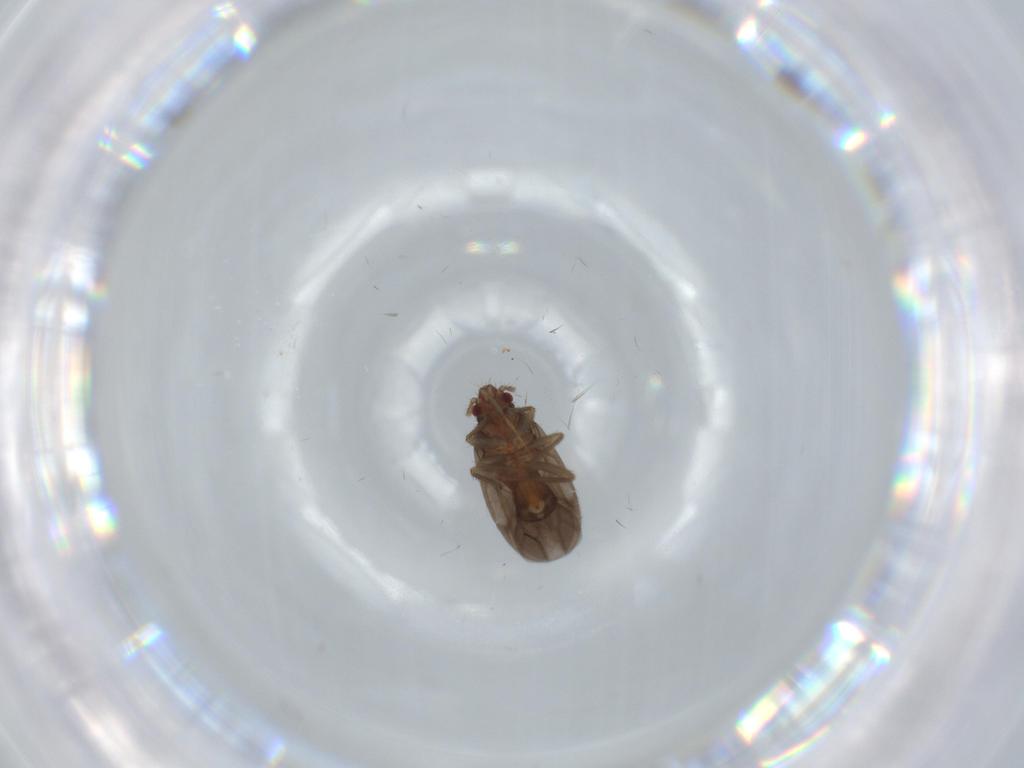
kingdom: Animalia
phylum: Arthropoda
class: Insecta
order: Hemiptera
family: Ceratocombidae
